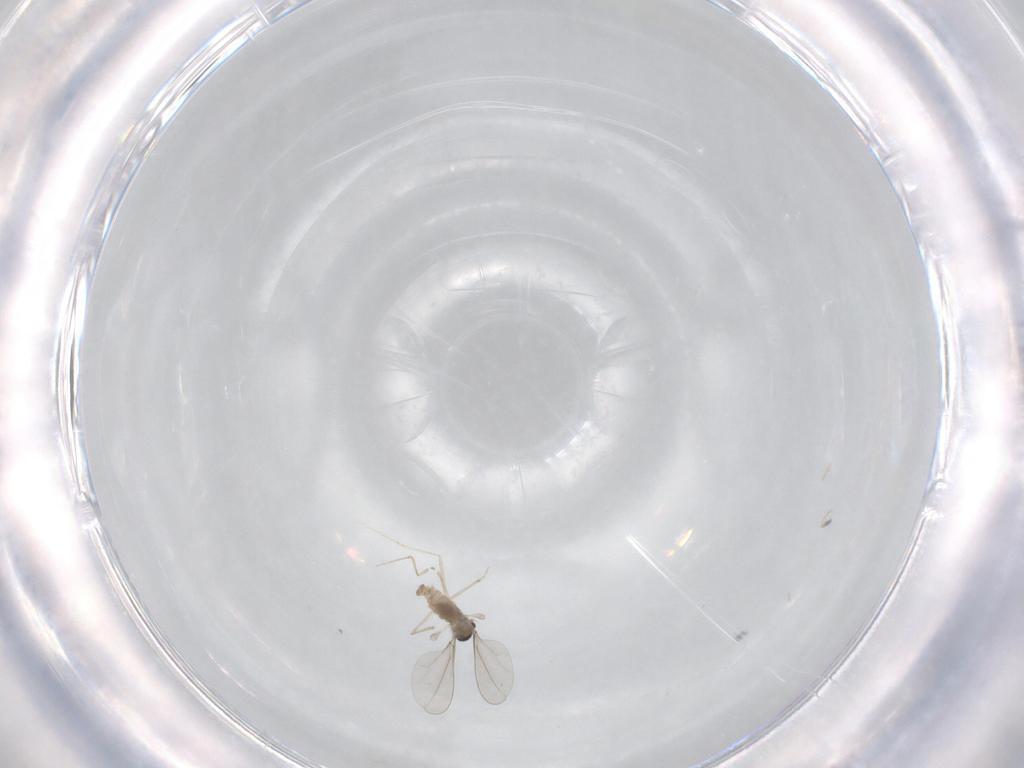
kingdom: Animalia
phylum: Arthropoda
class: Insecta
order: Diptera
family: Cecidomyiidae
